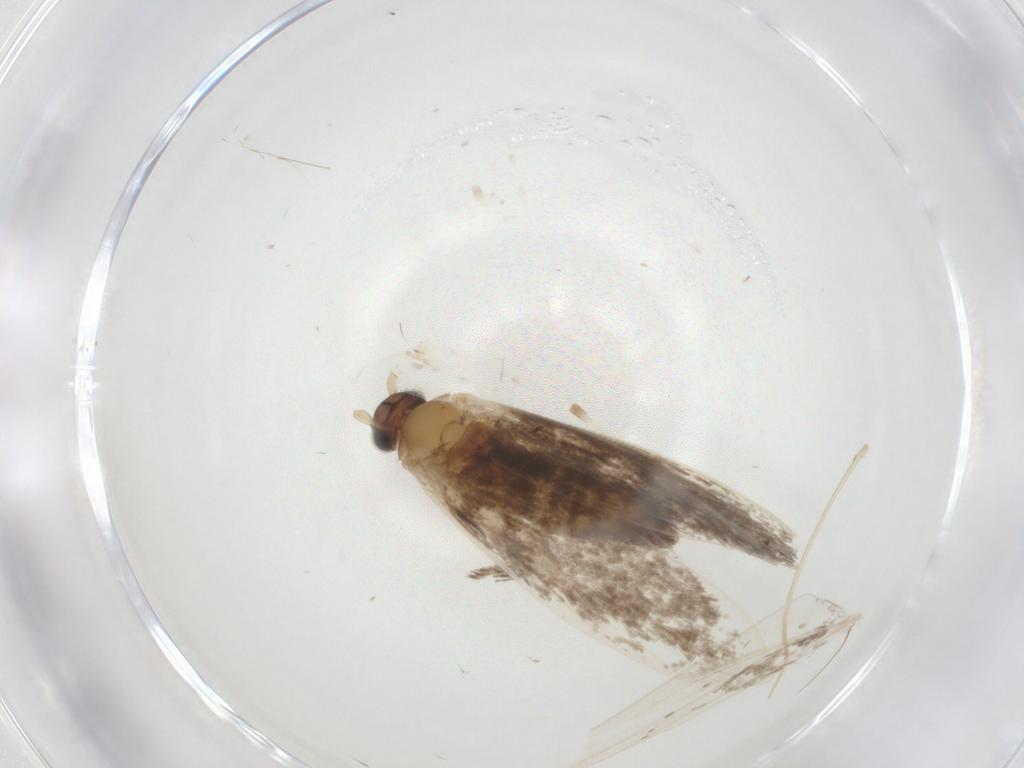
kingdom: Animalia
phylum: Arthropoda
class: Insecta
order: Lepidoptera
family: Tineidae
